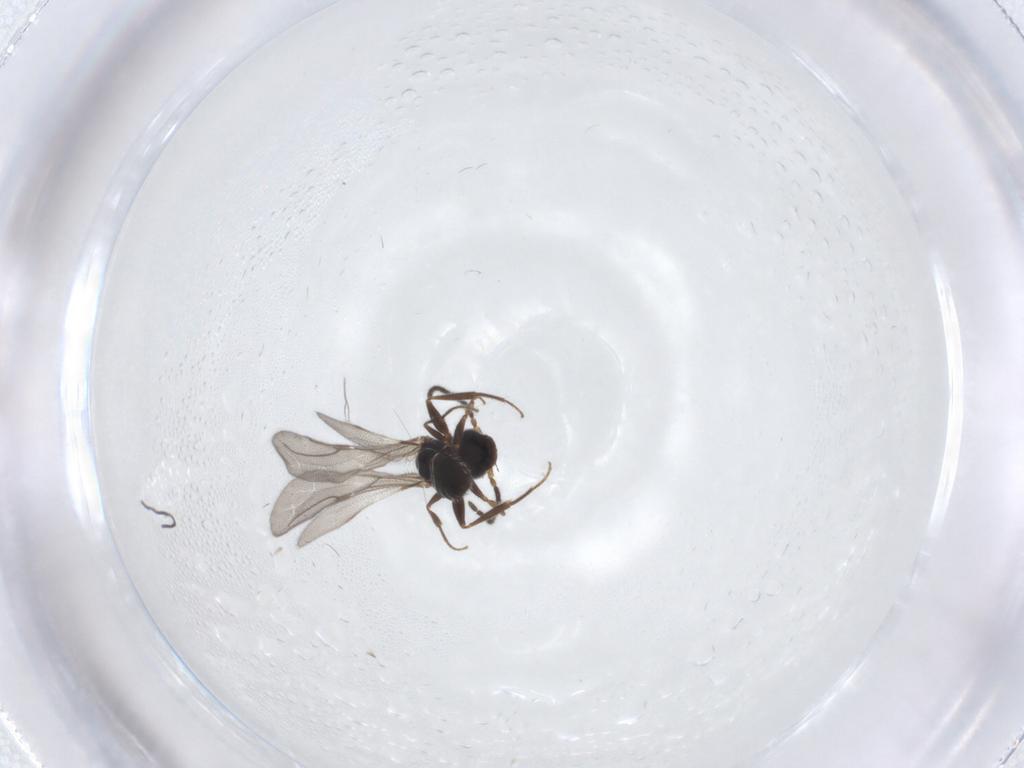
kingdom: Animalia
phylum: Arthropoda
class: Insecta
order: Hymenoptera
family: Bethylidae
